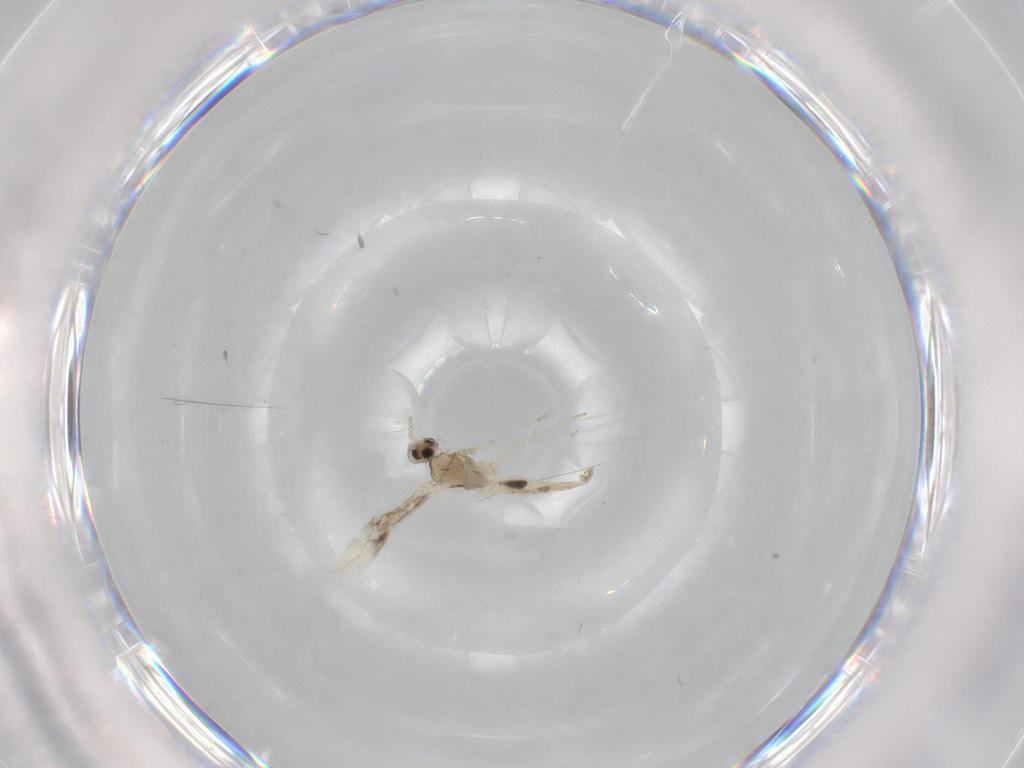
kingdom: Animalia
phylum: Arthropoda
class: Insecta
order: Diptera
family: Cecidomyiidae
